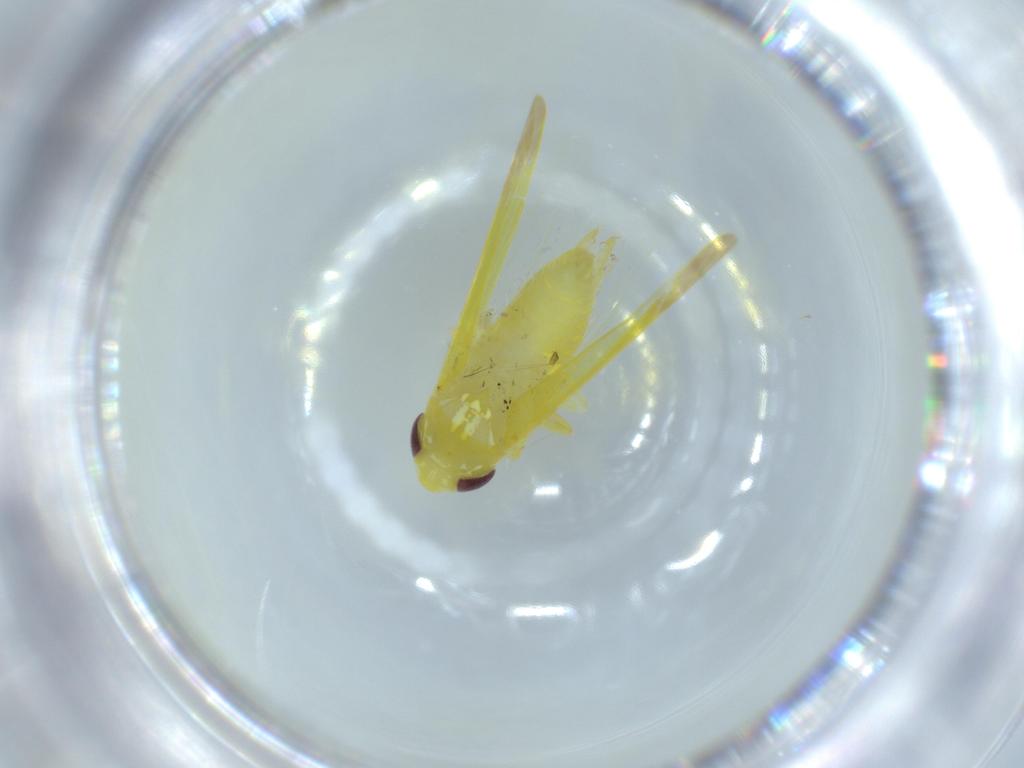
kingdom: Animalia
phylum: Arthropoda
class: Insecta
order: Hemiptera
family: Cicadellidae
